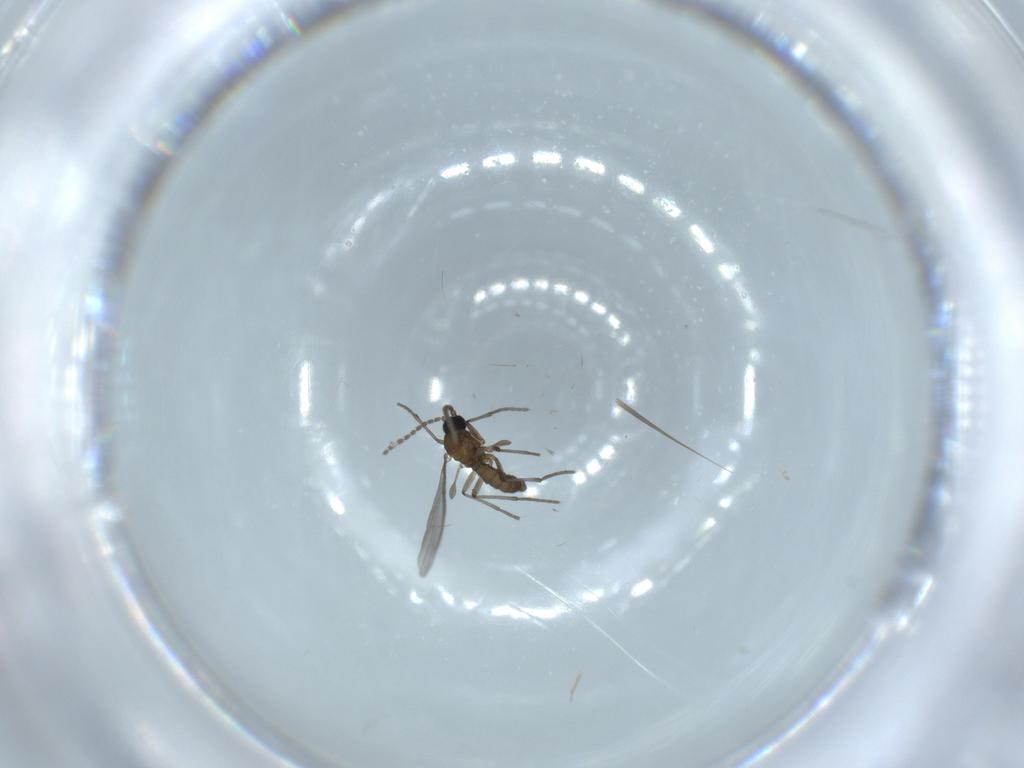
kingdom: Animalia
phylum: Arthropoda
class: Insecta
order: Diptera
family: Sciaridae
